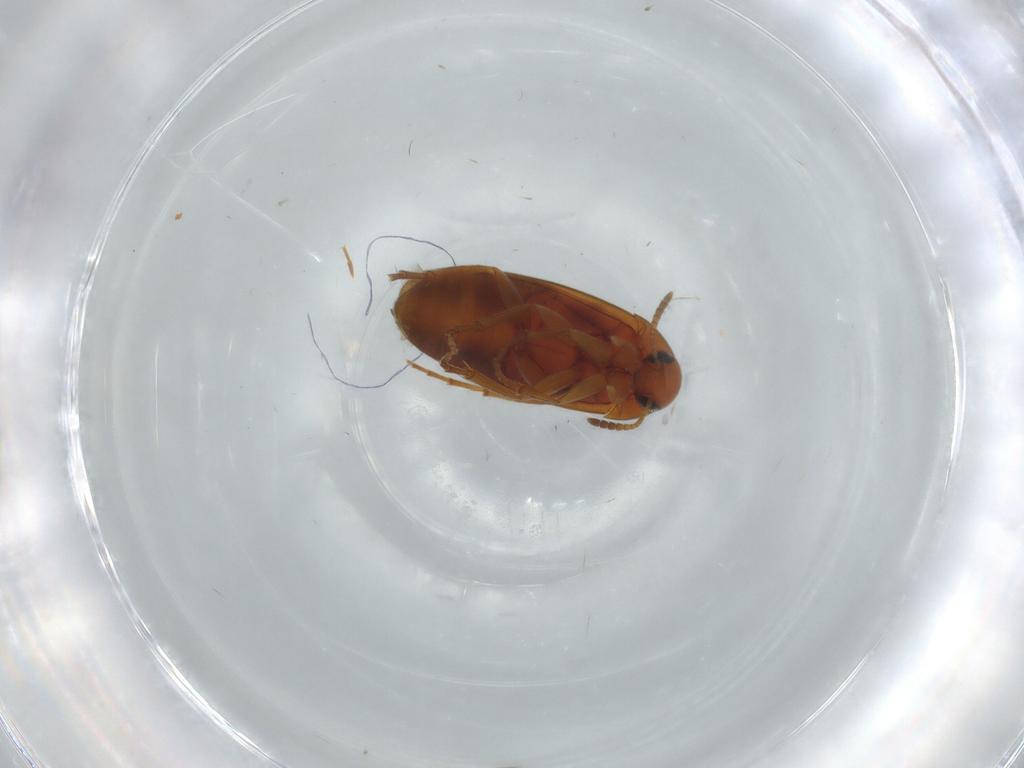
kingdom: Animalia
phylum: Arthropoda
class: Insecta
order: Coleoptera
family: Scraptiidae
